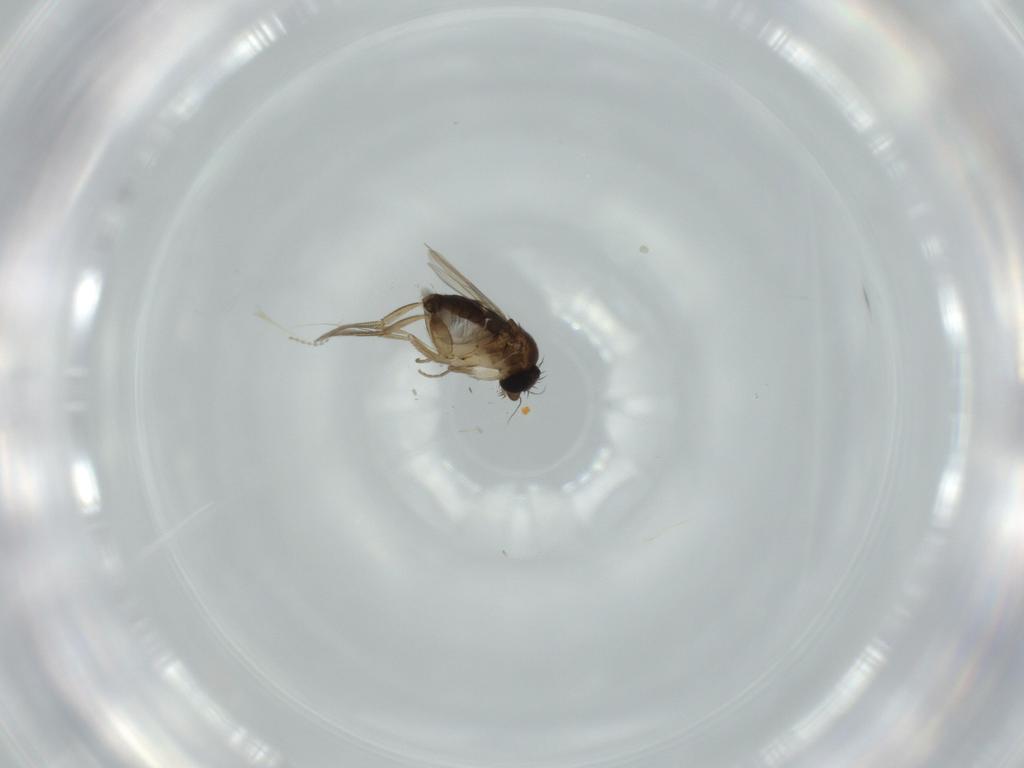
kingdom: Animalia
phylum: Arthropoda
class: Insecta
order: Diptera
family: Phoridae
